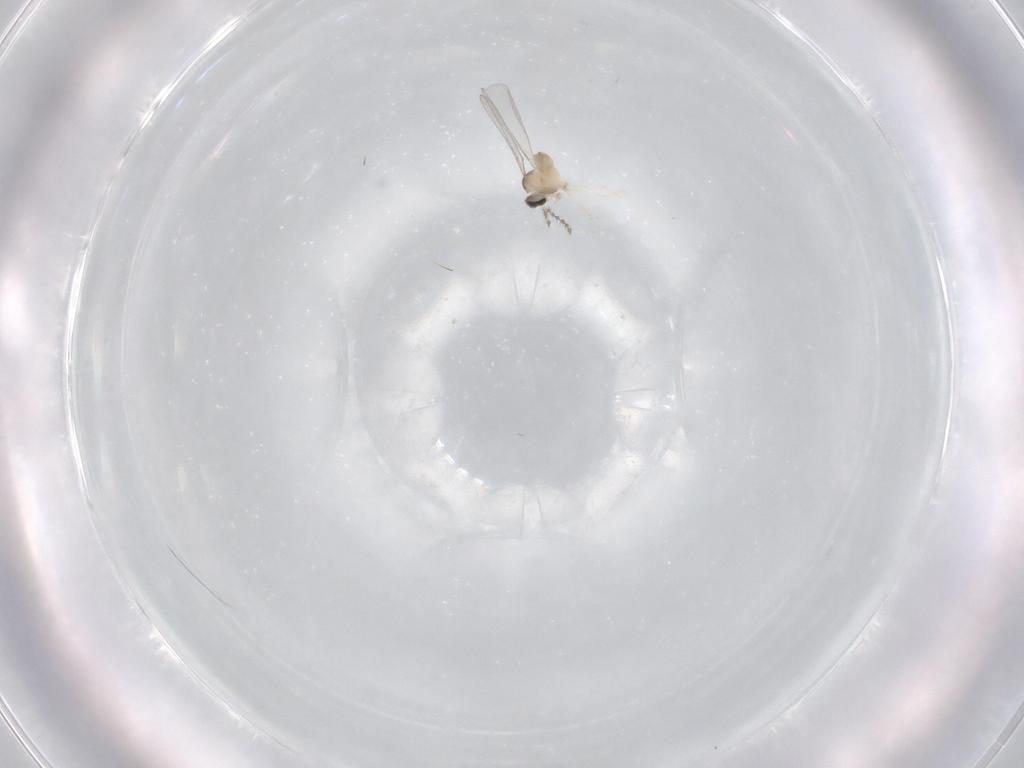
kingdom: Animalia
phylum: Arthropoda
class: Insecta
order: Diptera
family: Cecidomyiidae
